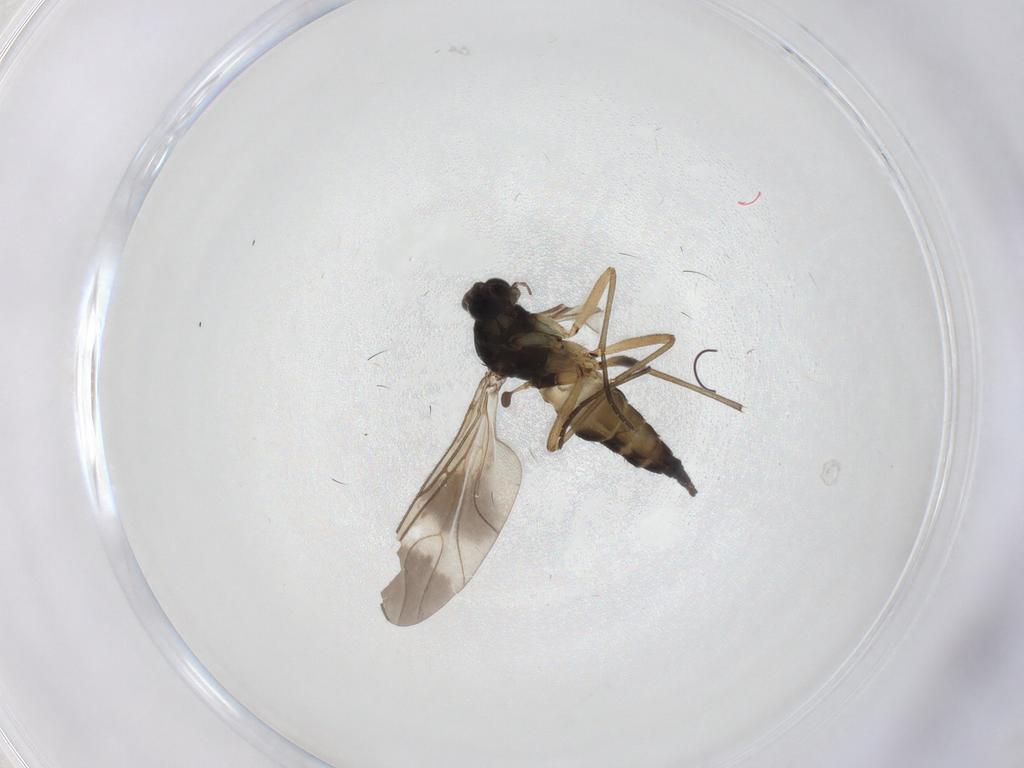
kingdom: Animalia
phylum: Arthropoda
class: Insecta
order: Diptera
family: Sciaridae
